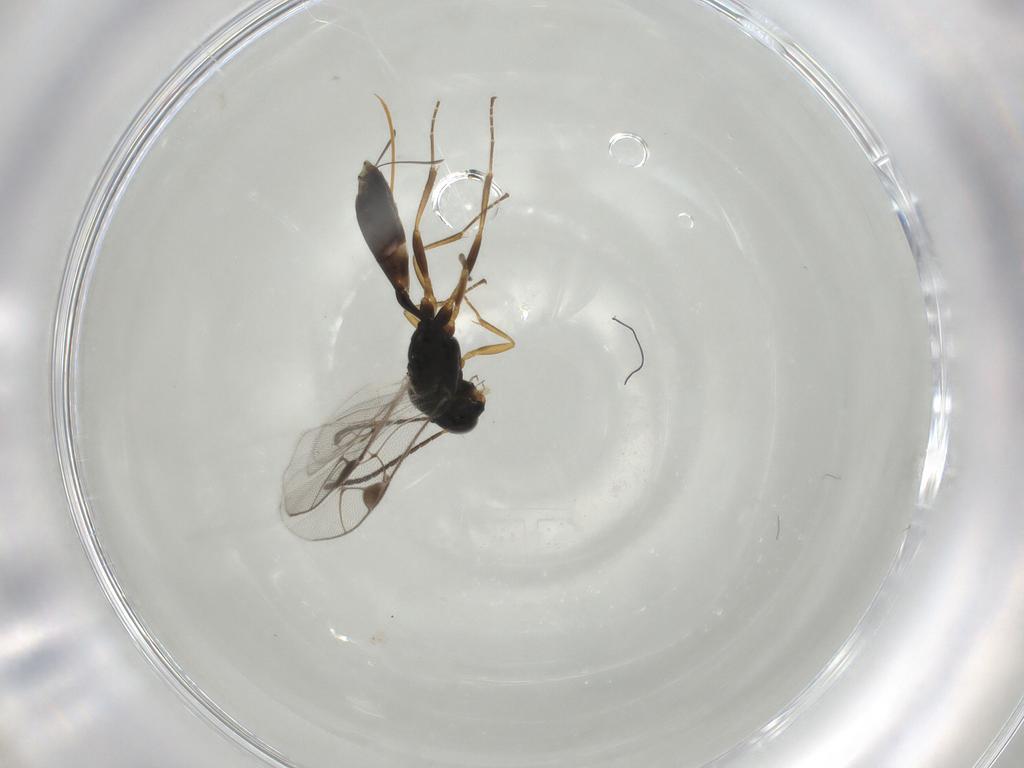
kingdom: Animalia
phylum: Arthropoda
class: Insecta
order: Hymenoptera
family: Ichneumonidae
